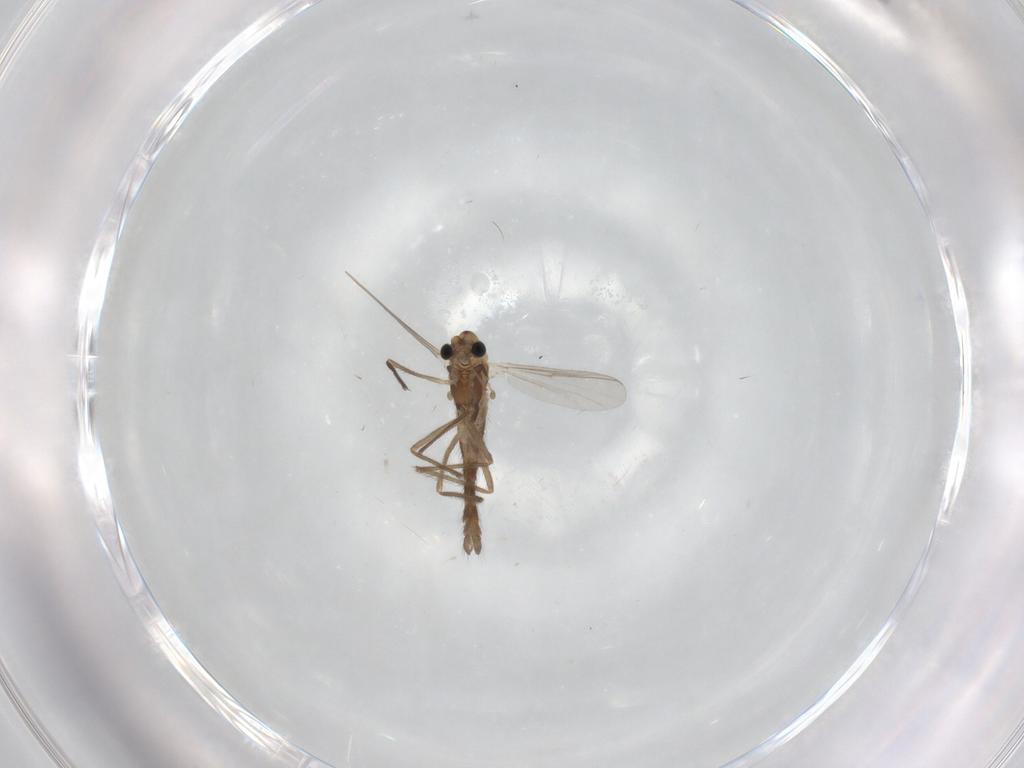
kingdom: Animalia
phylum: Arthropoda
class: Insecta
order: Diptera
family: Chironomidae
